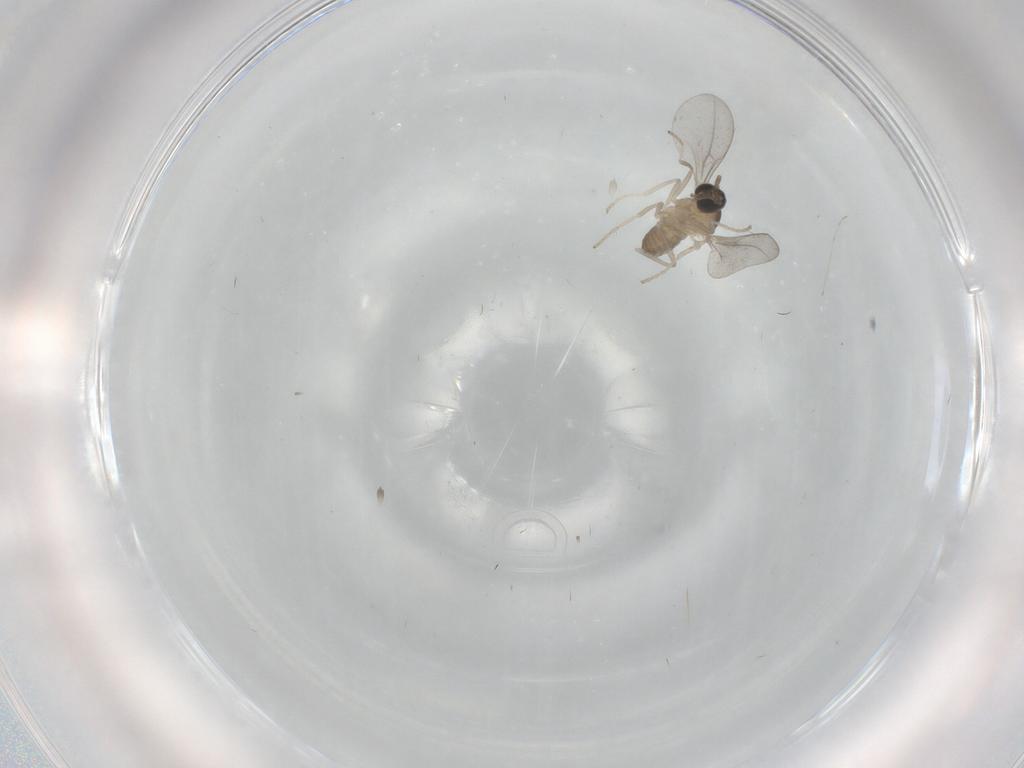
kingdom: Animalia
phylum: Arthropoda
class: Insecta
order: Diptera
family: Cecidomyiidae
